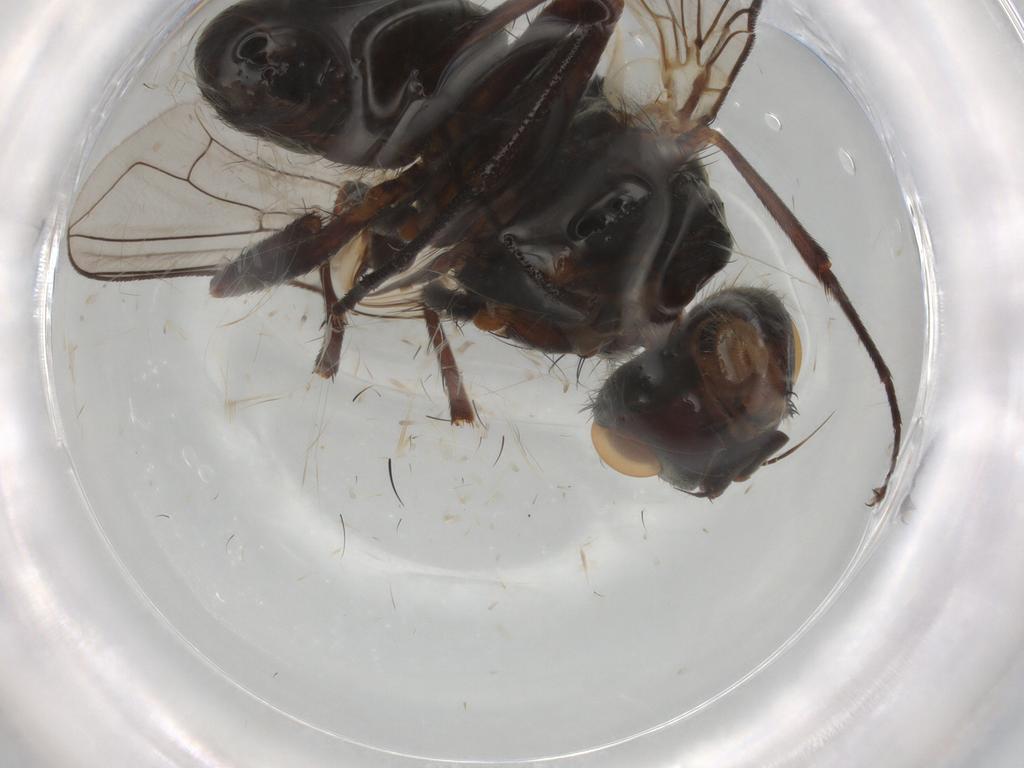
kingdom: Animalia
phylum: Arthropoda
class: Insecta
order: Diptera
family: Tachinidae
